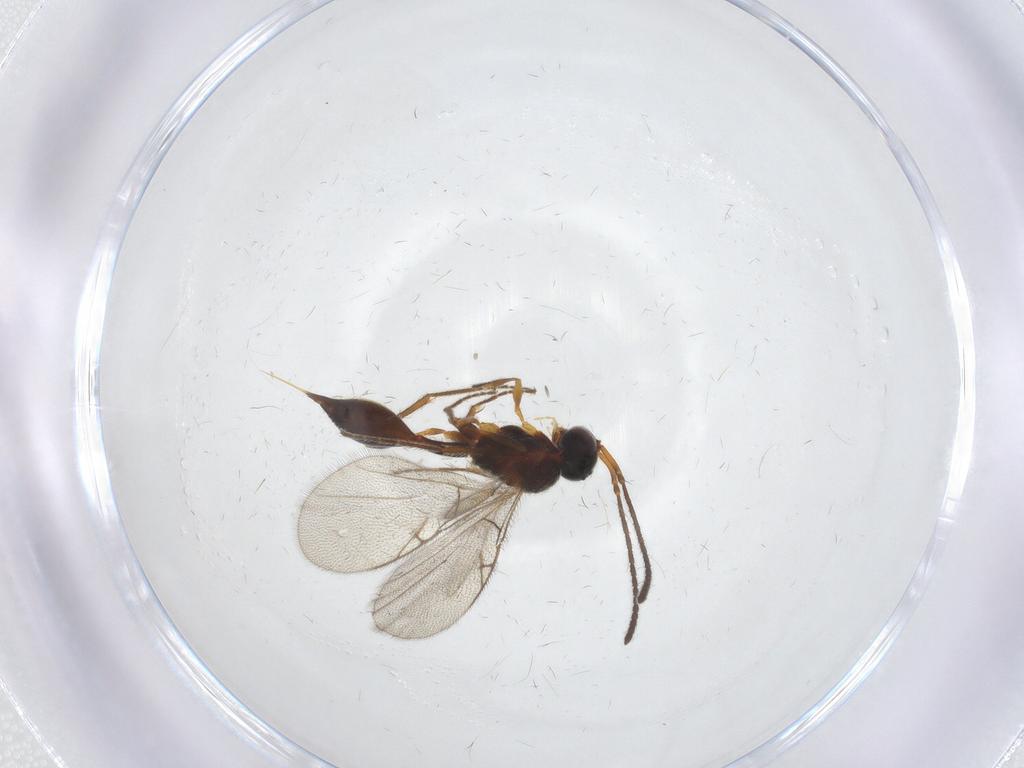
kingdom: Animalia
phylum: Arthropoda
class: Insecta
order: Hymenoptera
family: Diapriidae
